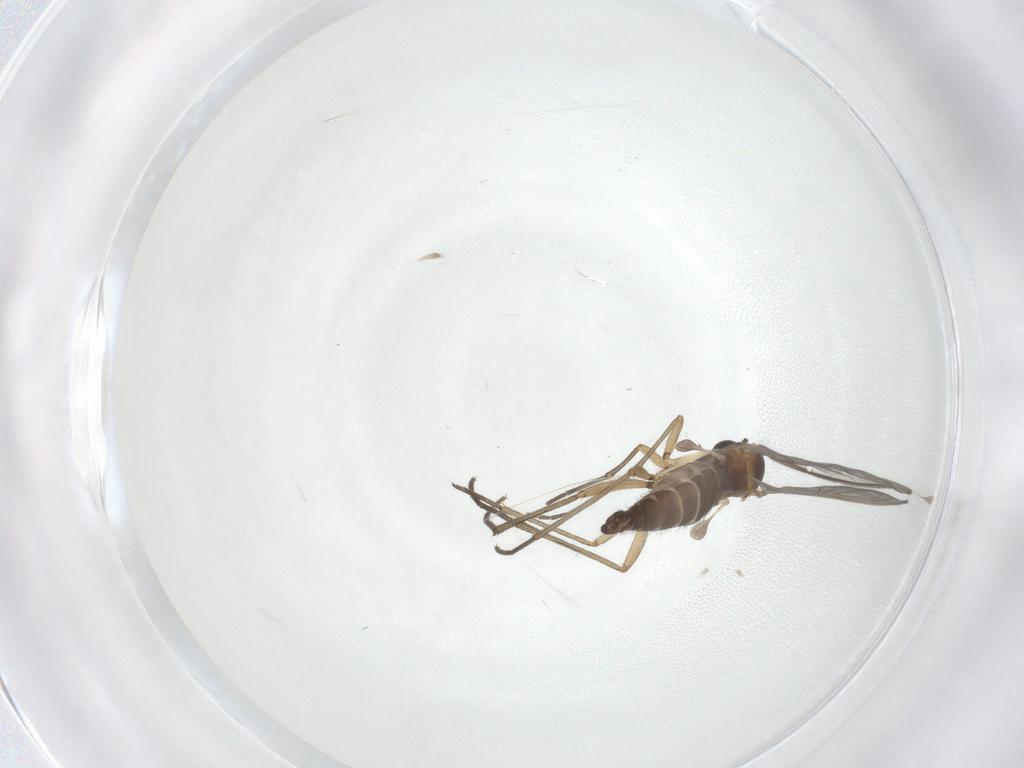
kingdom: Animalia
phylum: Arthropoda
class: Insecta
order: Diptera
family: Sciaridae
